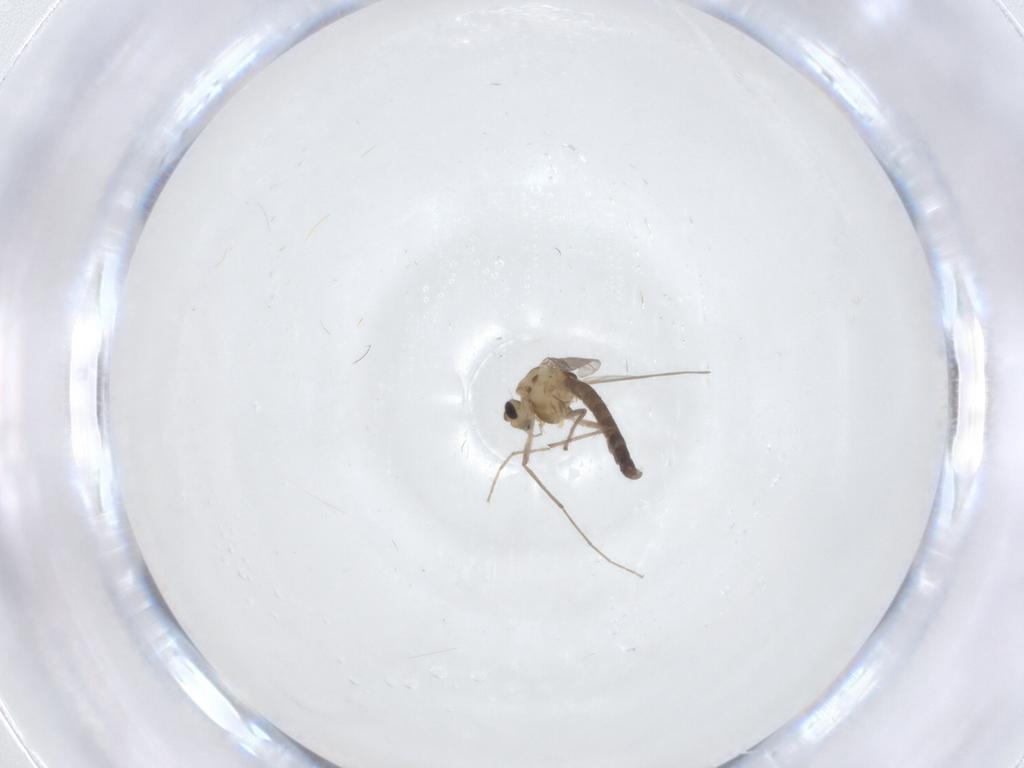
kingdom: Animalia
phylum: Arthropoda
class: Insecta
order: Diptera
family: Chironomidae
